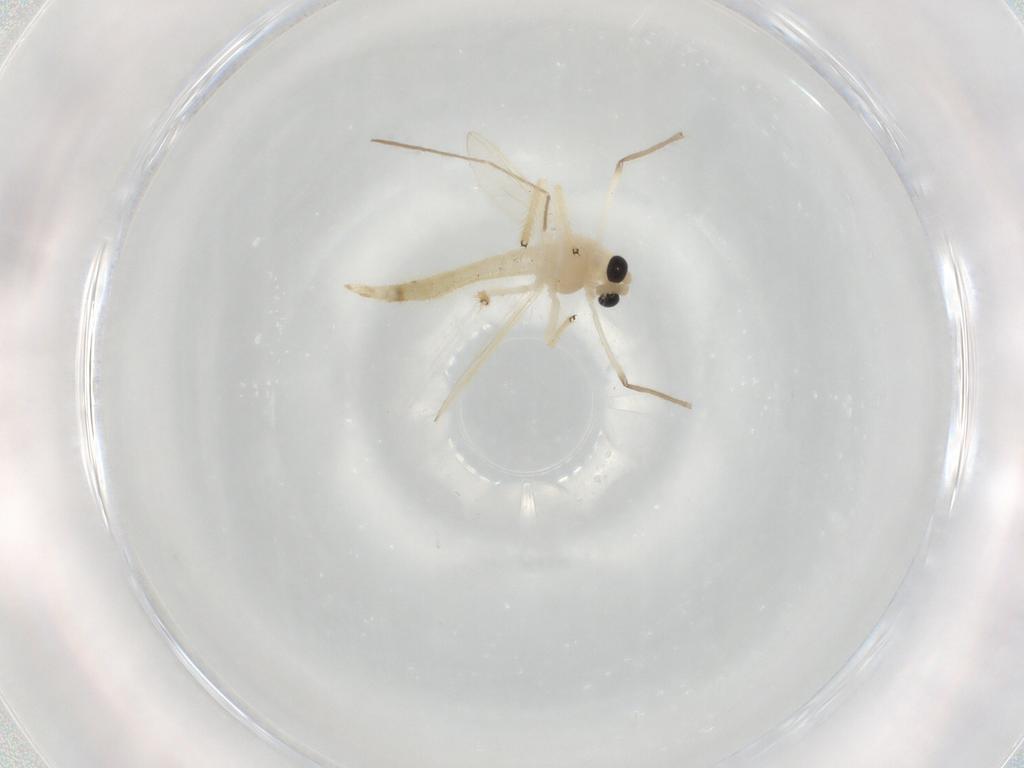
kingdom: Animalia
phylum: Arthropoda
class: Insecta
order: Diptera
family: Chironomidae
